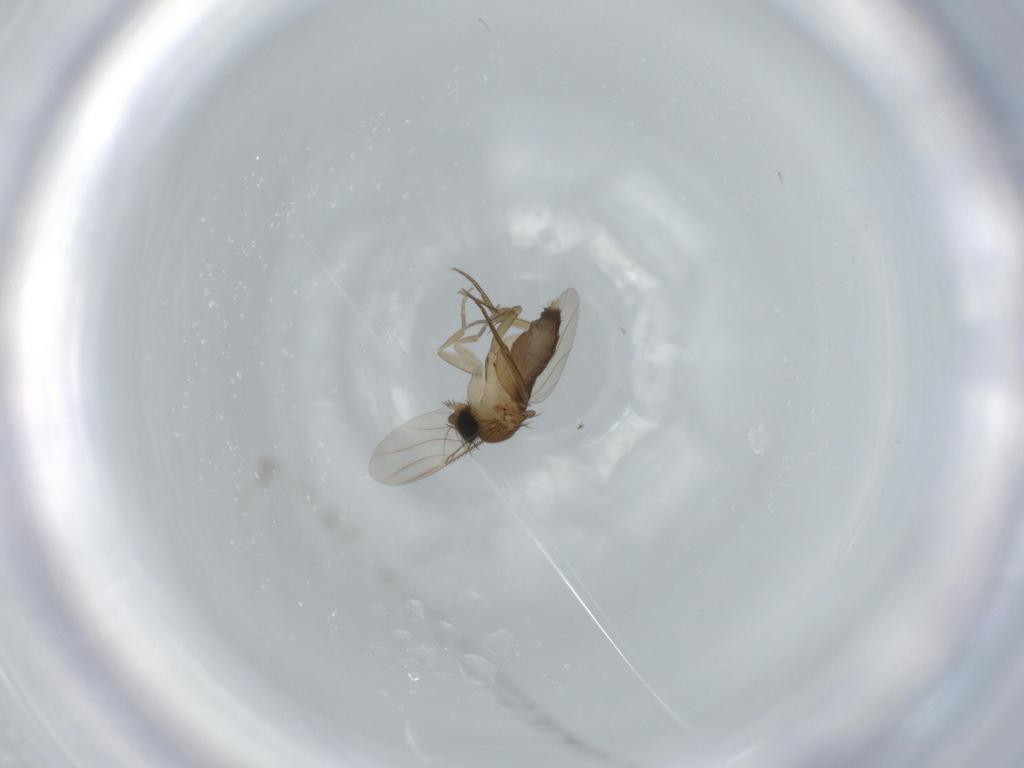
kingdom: Animalia
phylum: Arthropoda
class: Insecta
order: Diptera
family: Phoridae
